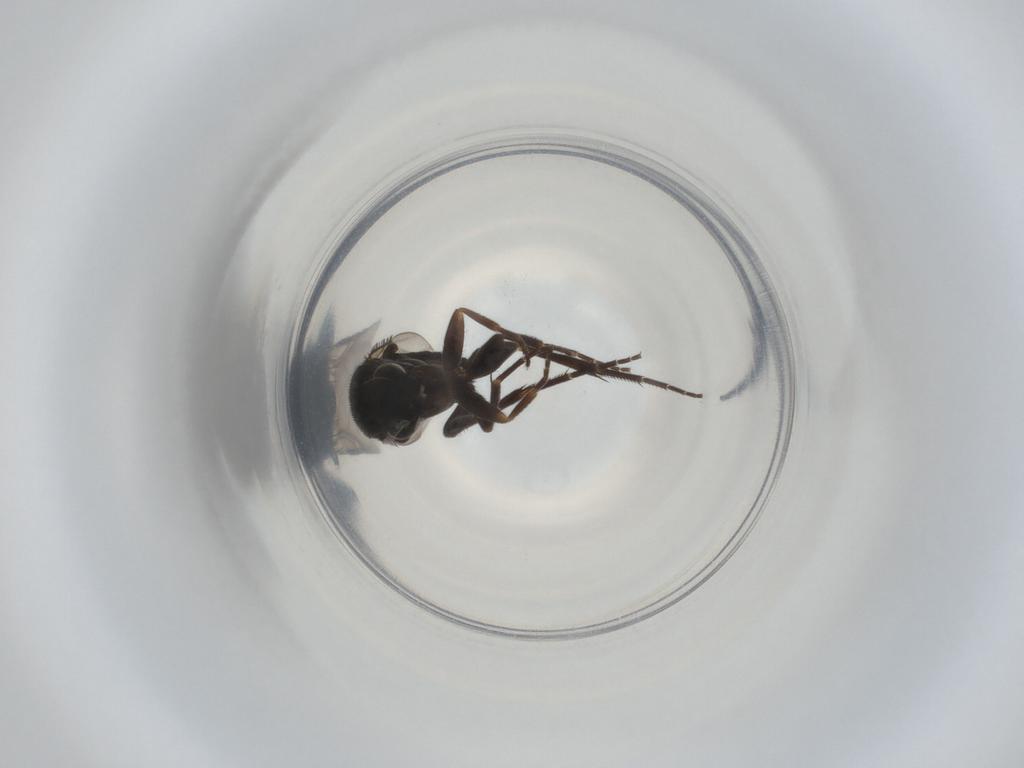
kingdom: Animalia
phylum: Arthropoda
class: Insecta
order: Diptera
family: Phoridae
